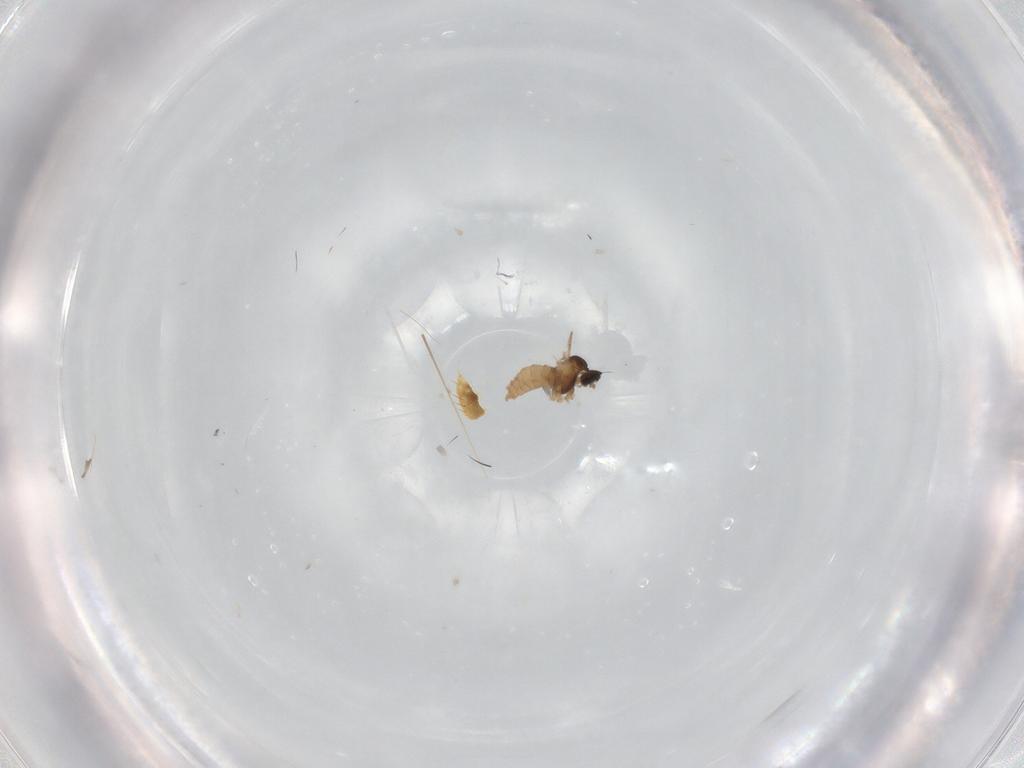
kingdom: Animalia
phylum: Arthropoda
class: Insecta
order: Diptera
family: Cecidomyiidae
